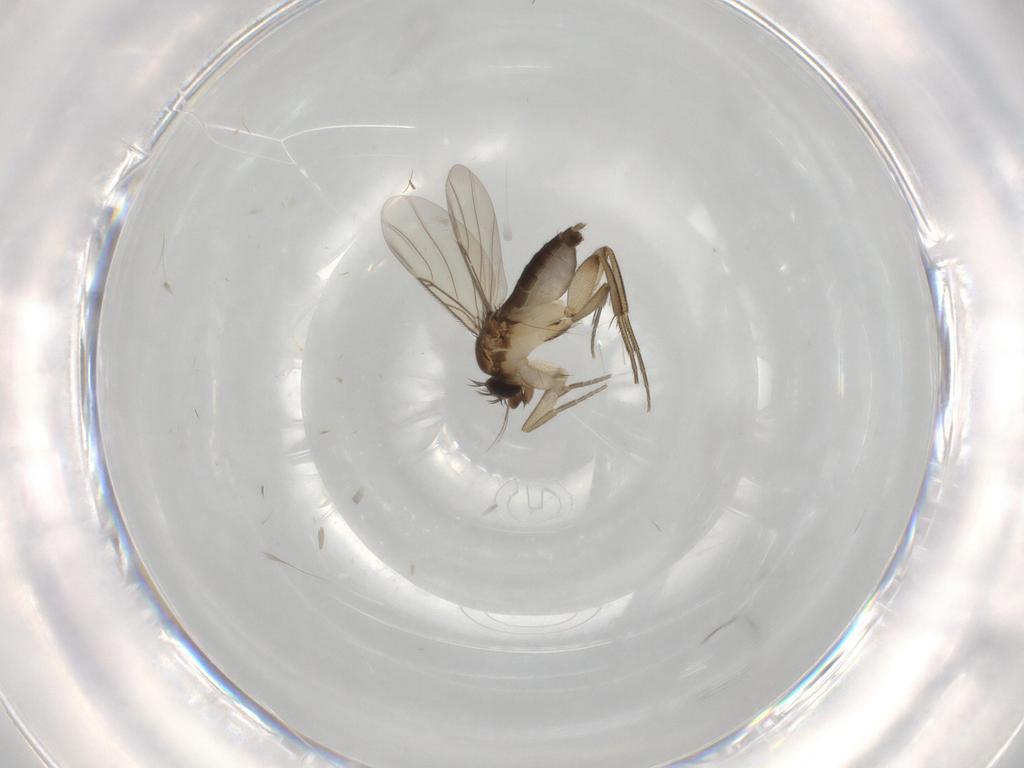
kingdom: Animalia
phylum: Arthropoda
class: Insecta
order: Diptera
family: Phoridae
